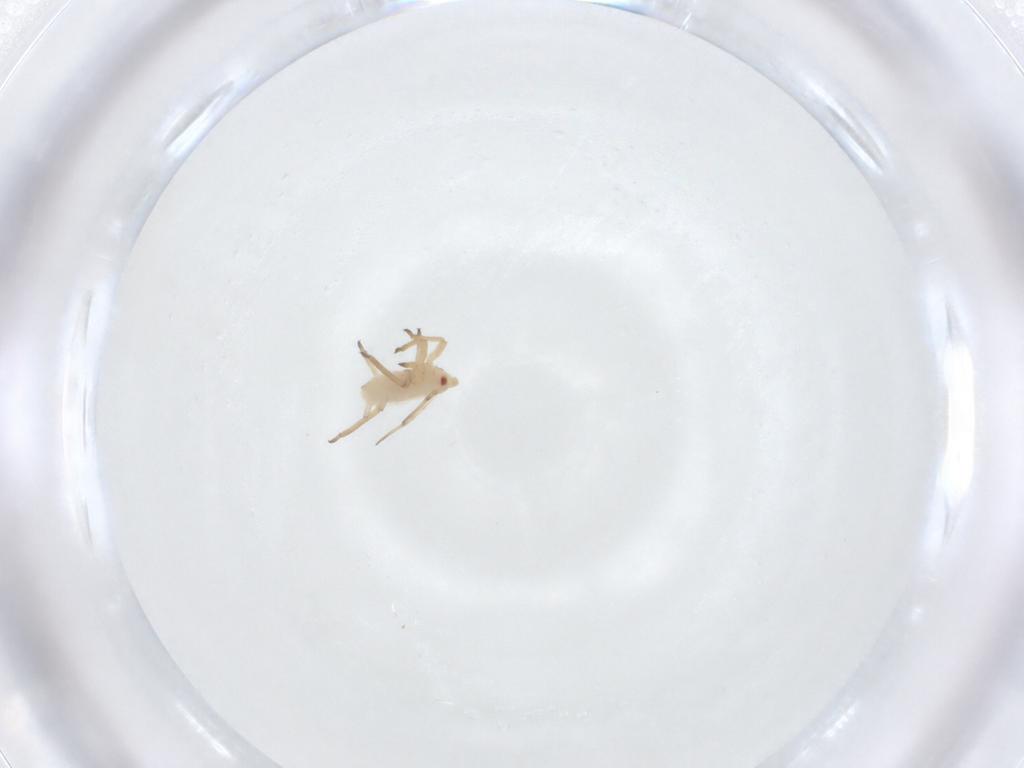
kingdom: Animalia
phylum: Arthropoda
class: Insecta
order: Hemiptera
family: Aphididae
